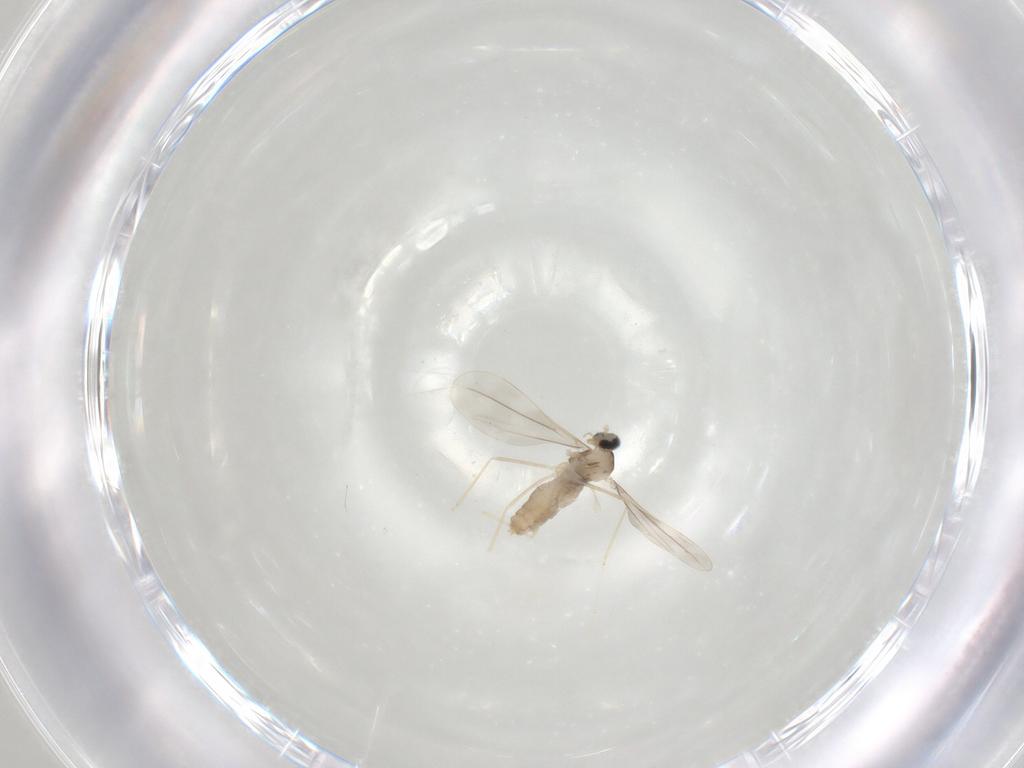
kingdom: Animalia
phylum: Arthropoda
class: Insecta
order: Diptera
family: Cecidomyiidae
